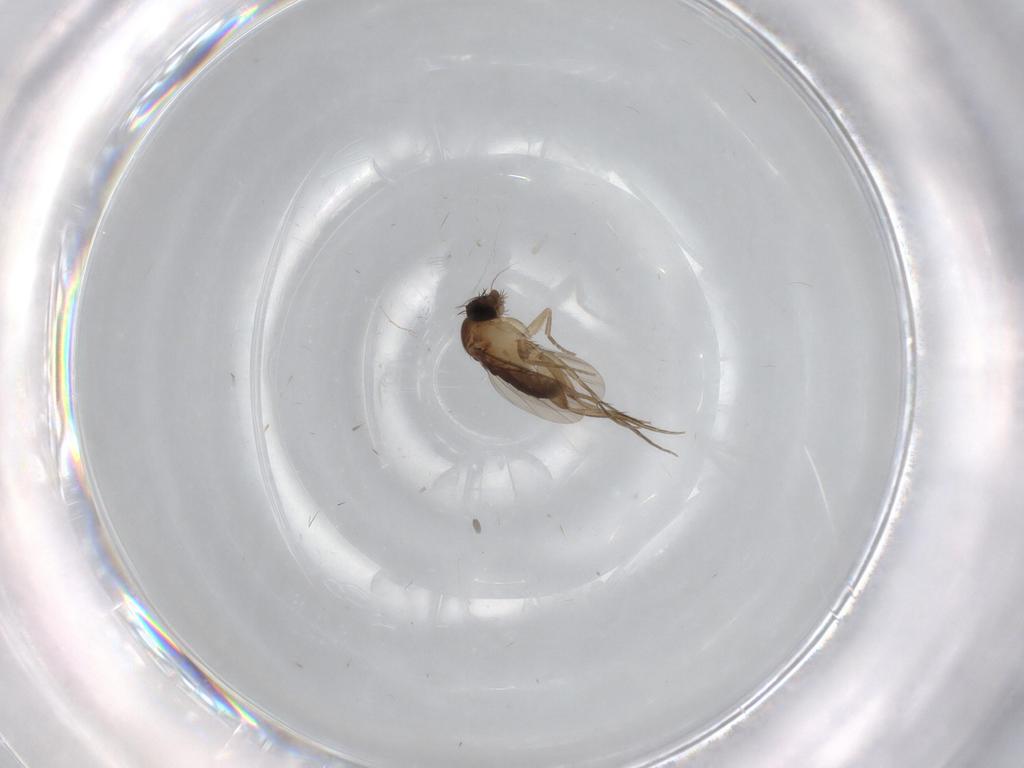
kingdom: Animalia
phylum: Arthropoda
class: Insecta
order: Diptera
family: Phoridae
